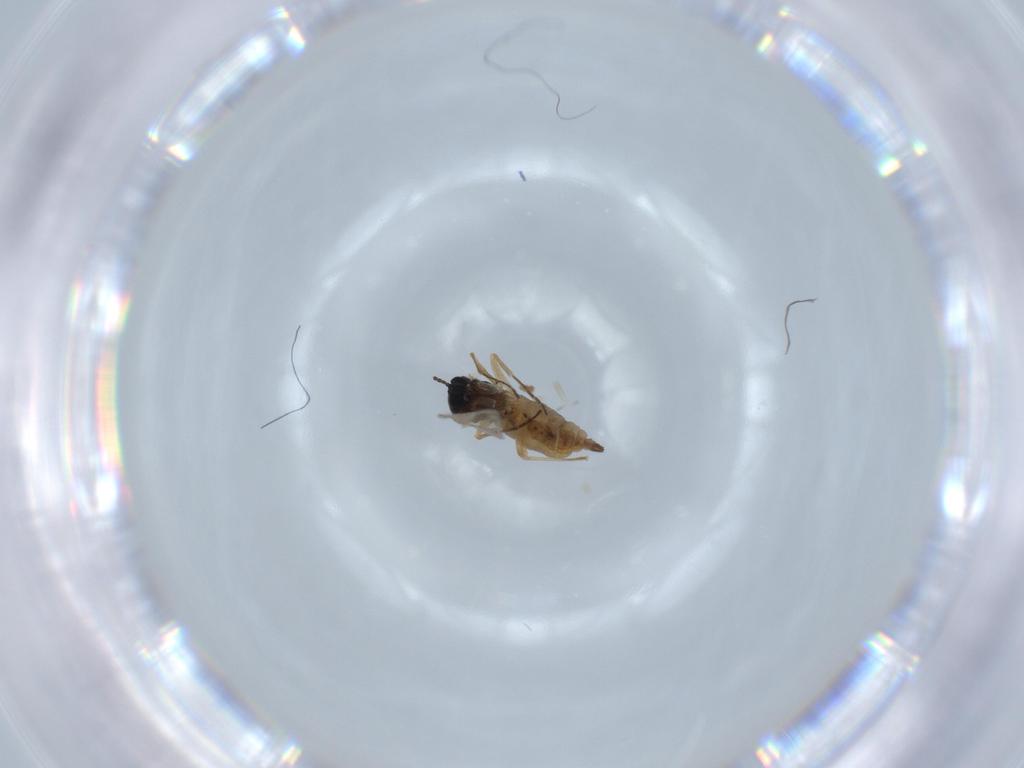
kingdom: Animalia
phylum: Arthropoda
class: Insecta
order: Diptera
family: Sciaridae
